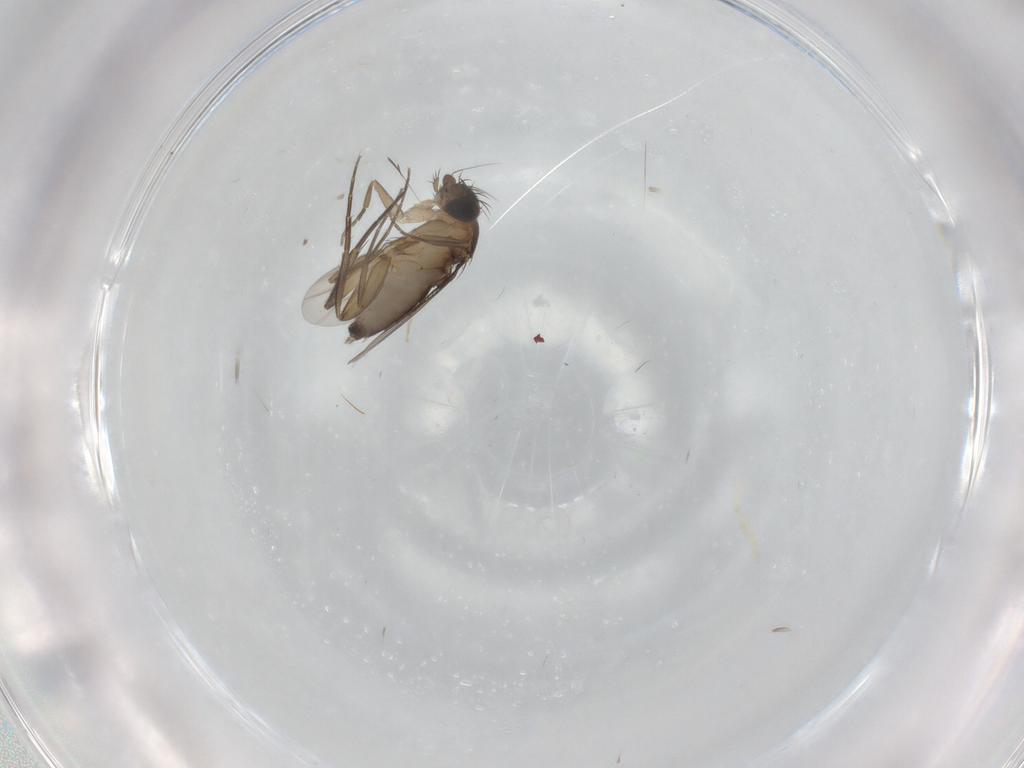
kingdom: Animalia
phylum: Arthropoda
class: Insecta
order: Diptera
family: Phoridae
